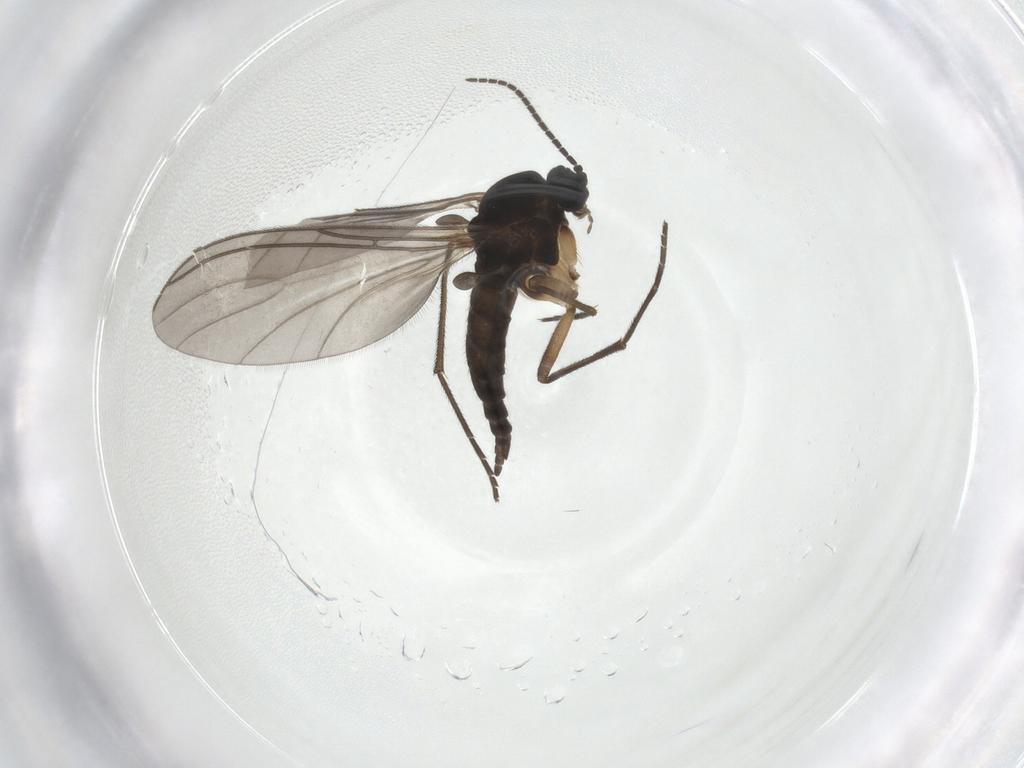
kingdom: Animalia
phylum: Arthropoda
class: Insecta
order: Diptera
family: Sciaridae
